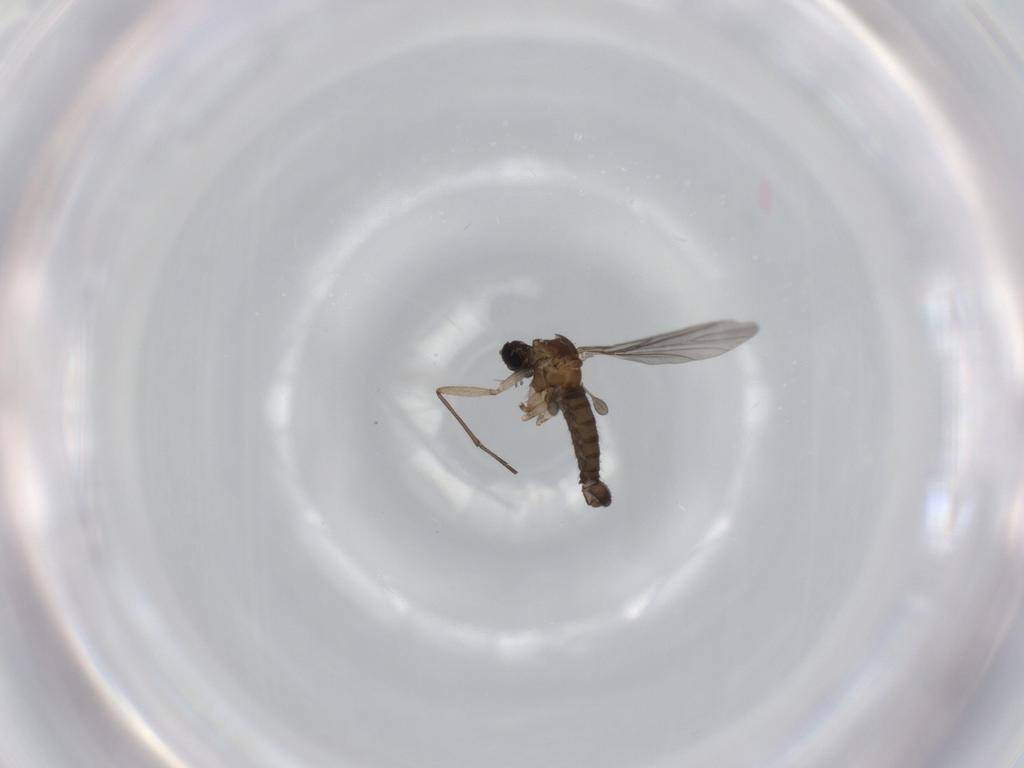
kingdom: Animalia
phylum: Arthropoda
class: Insecta
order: Diptera
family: Sciaridae
